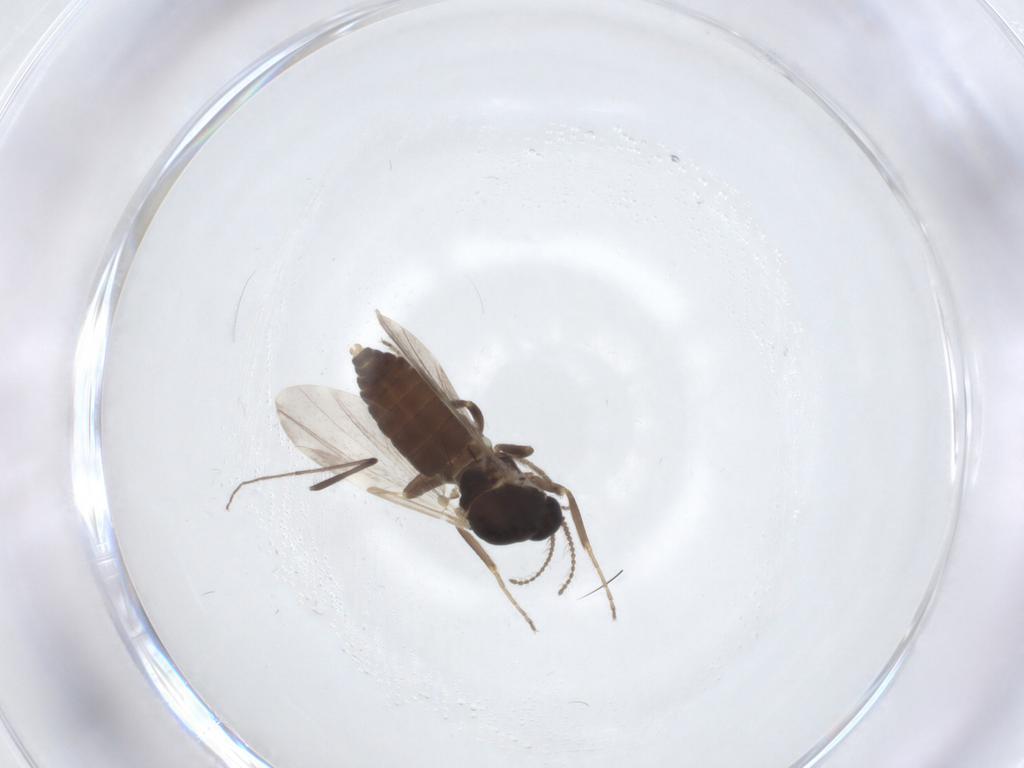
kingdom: Animalia
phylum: Arthropoda
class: Insecta
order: Diptera
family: Ceratopogonidae
